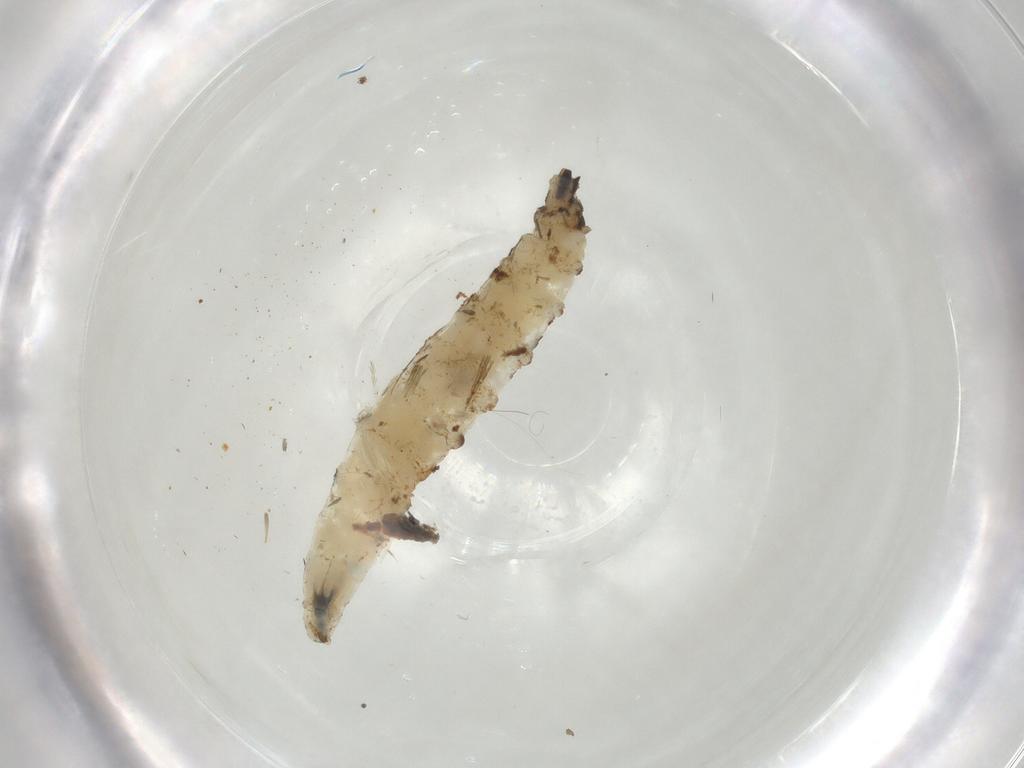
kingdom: Animalia
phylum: Arthropoda
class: Insecta
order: Diptera
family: Drosophilidae
